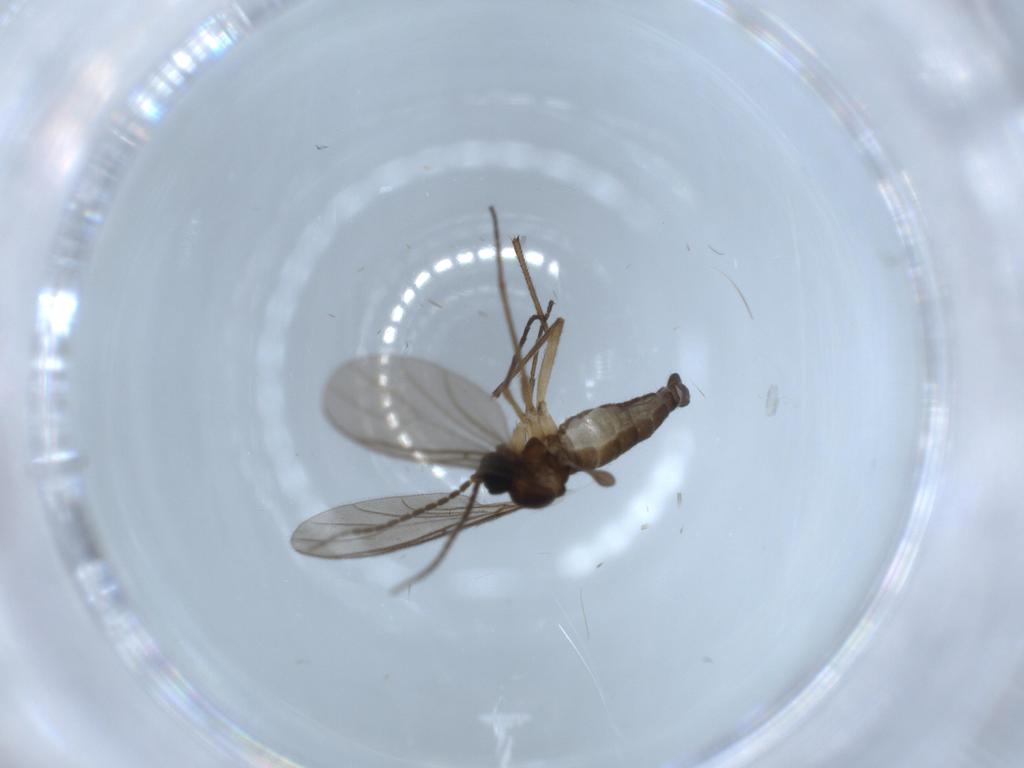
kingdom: Animalia
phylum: Arthropoda
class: Insecta
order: Diptera
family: Sciaridae
